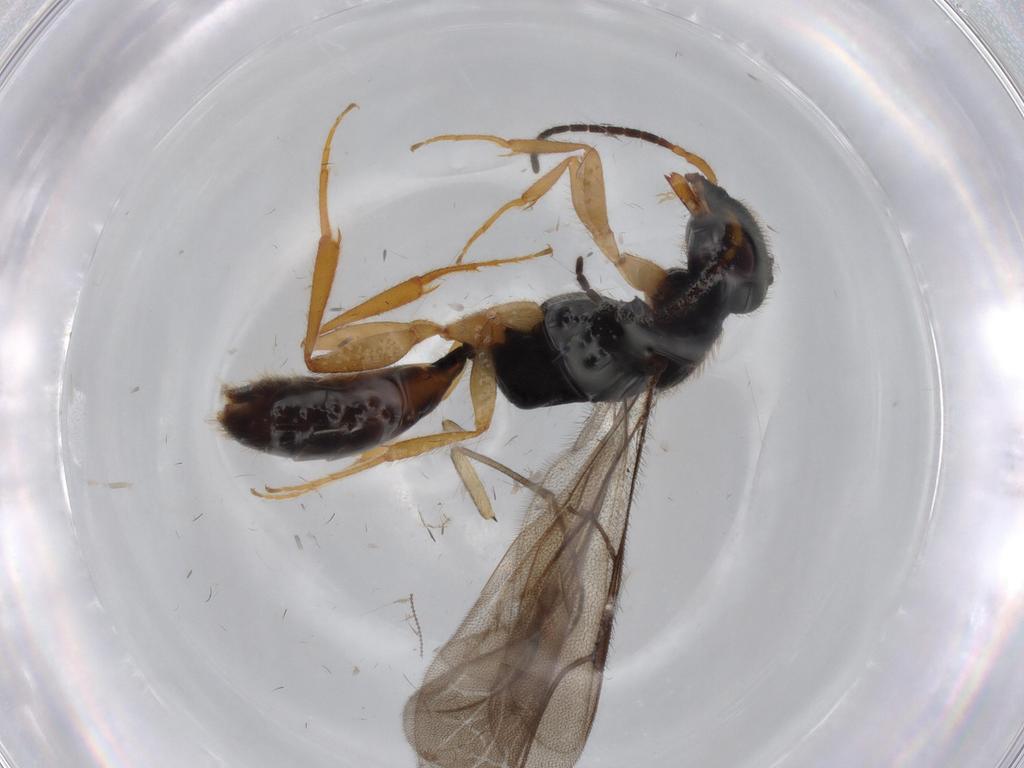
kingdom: Animalia
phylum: Arthropoda
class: Insecta
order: Hymenoptera
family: Bethylidae
